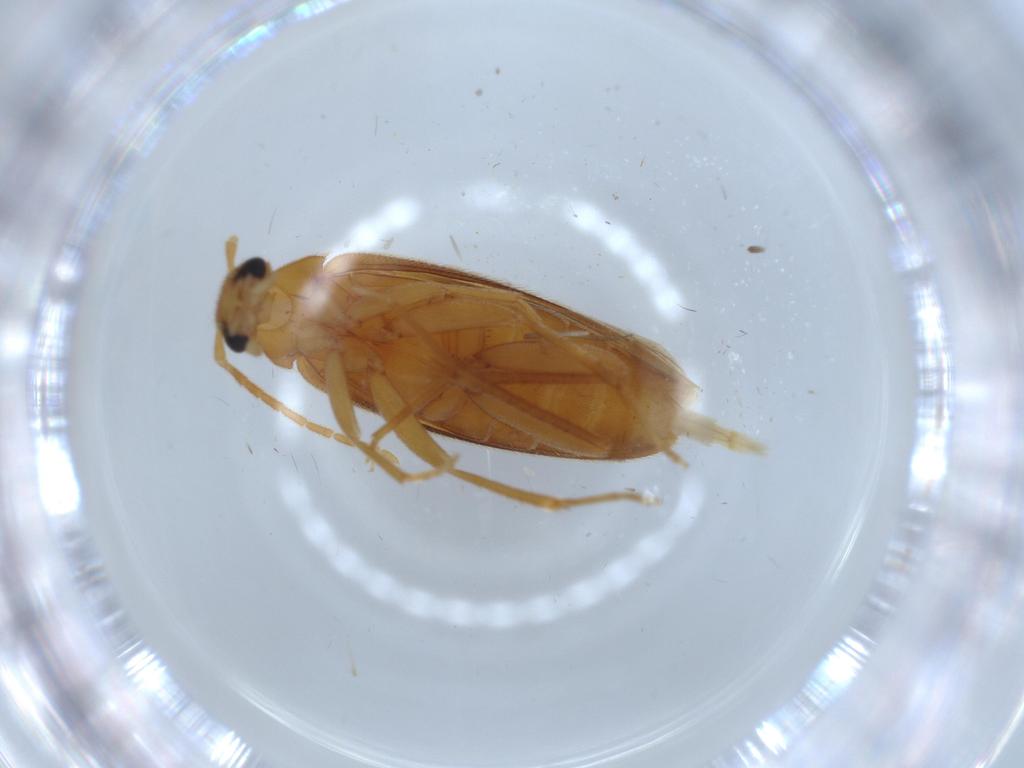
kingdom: Animalia
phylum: Arthropoda
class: Insecta
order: Coleoptera
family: Scraptiidae
